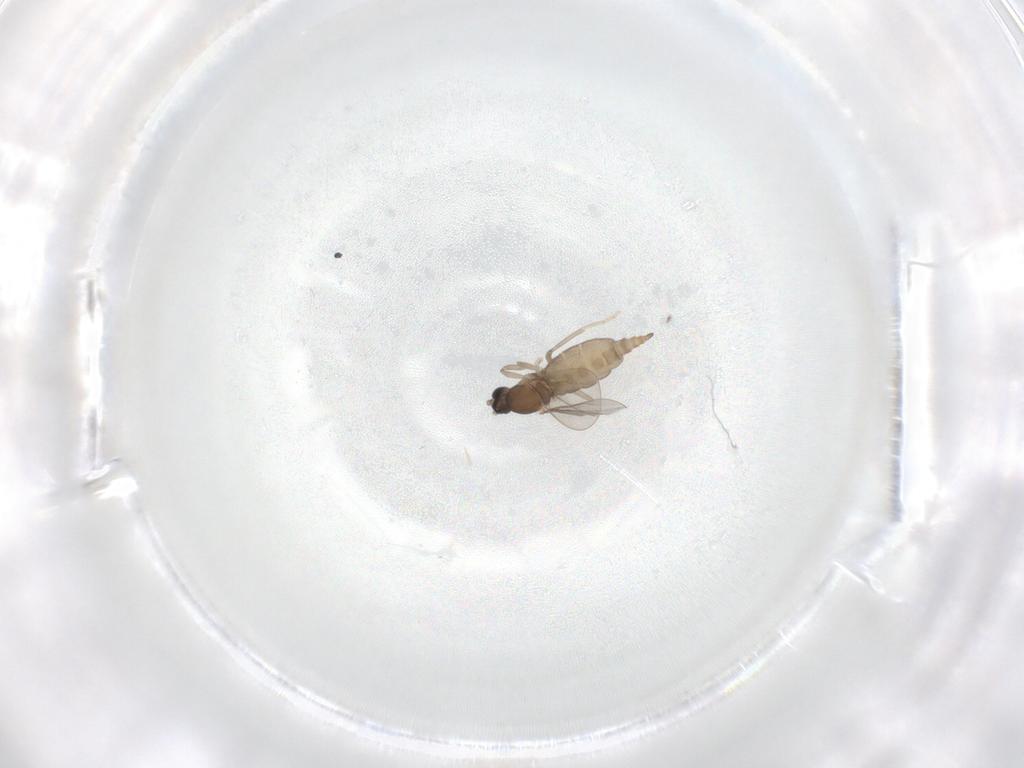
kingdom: Animalia
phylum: Arthropoda
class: Insecta
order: Diptera
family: Cecidomyiidae
